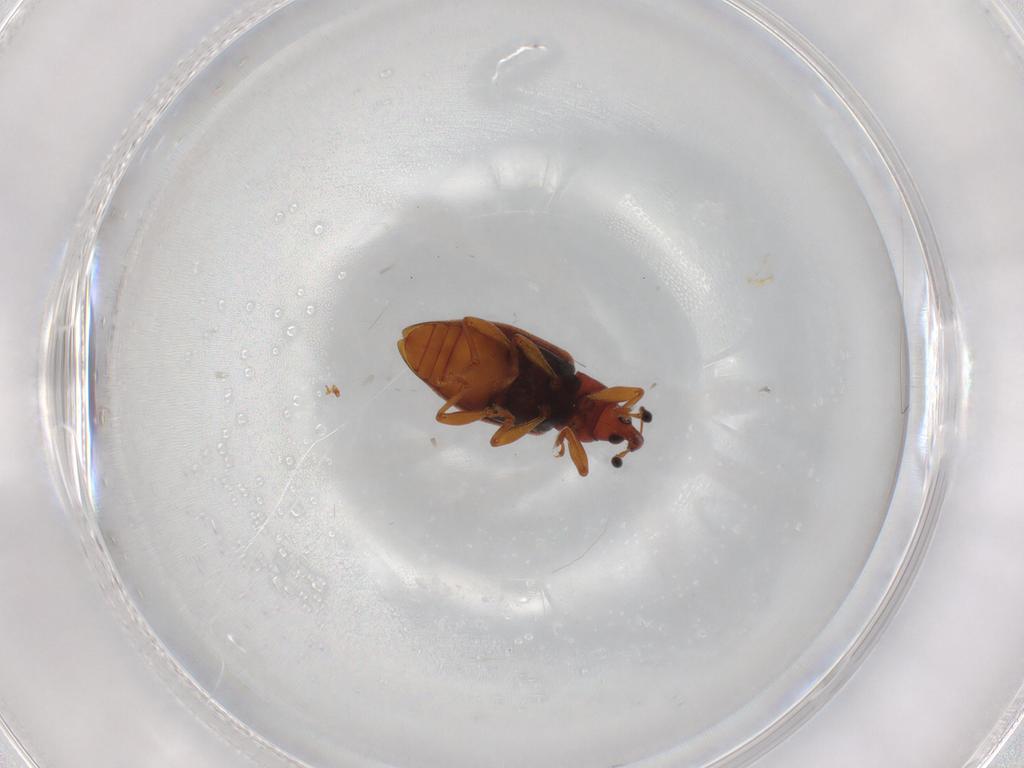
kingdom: Animalia
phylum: Arthropoda
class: Insecta
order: Coleoptera
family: Curculionidae
